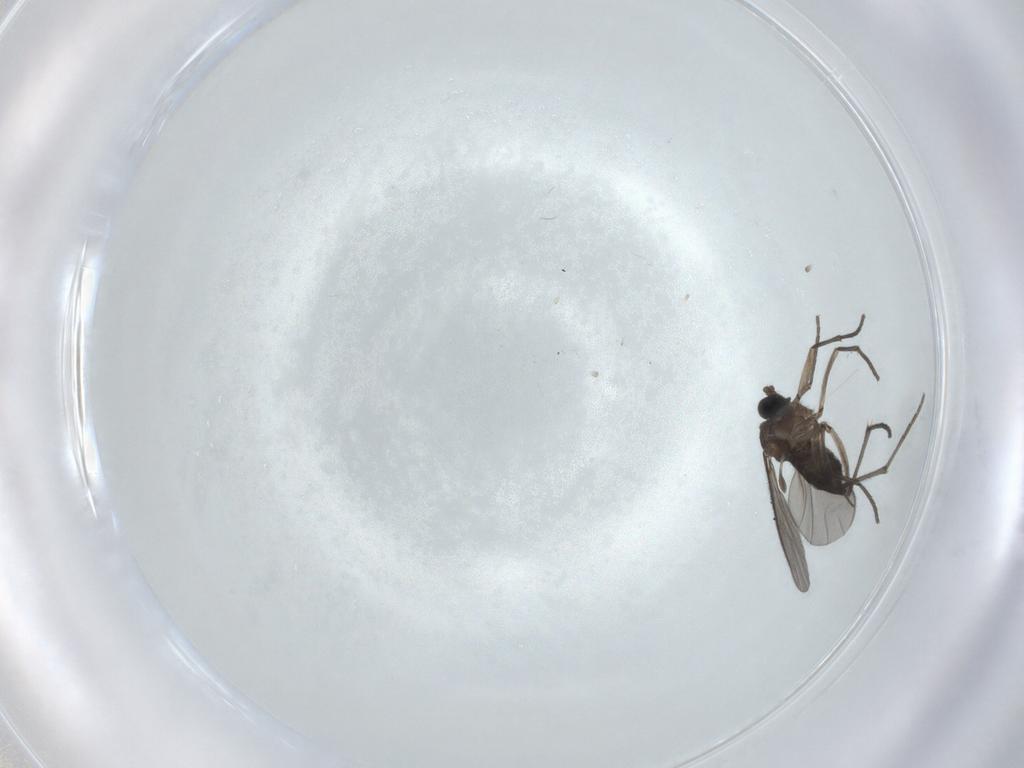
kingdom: Animalia
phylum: Arthropoda
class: Insecta
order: Diptera
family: Sciaridae
